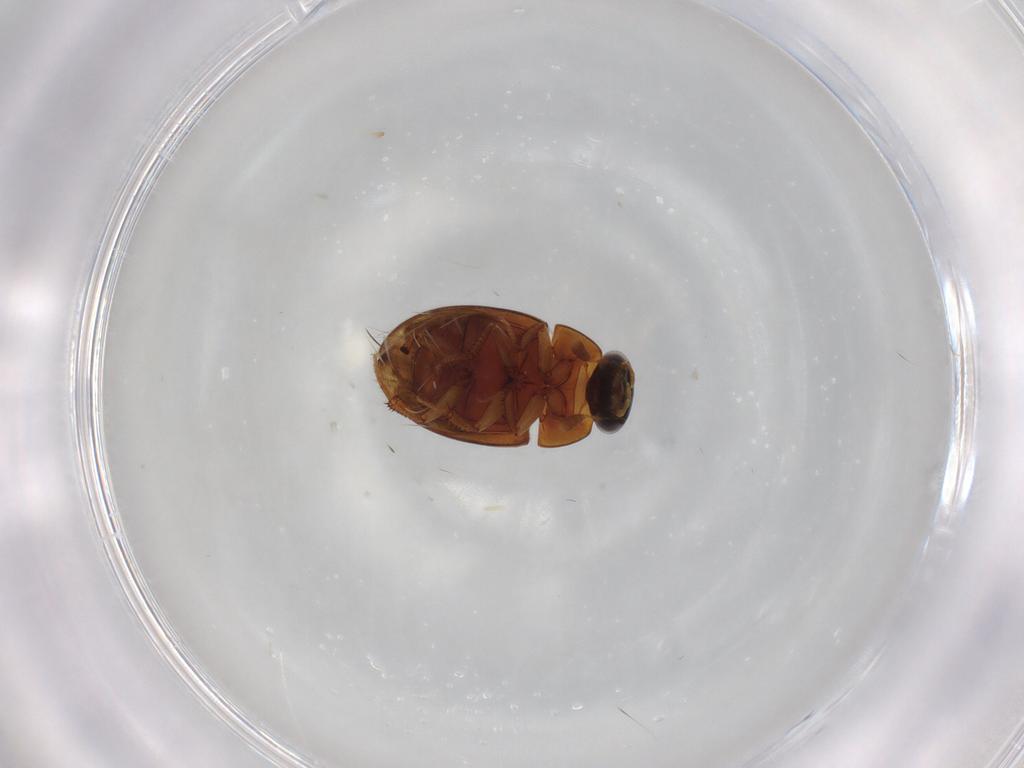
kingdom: Animalia
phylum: Arthropoda
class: Insecta
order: Coleoptera
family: Hydrophilidae
